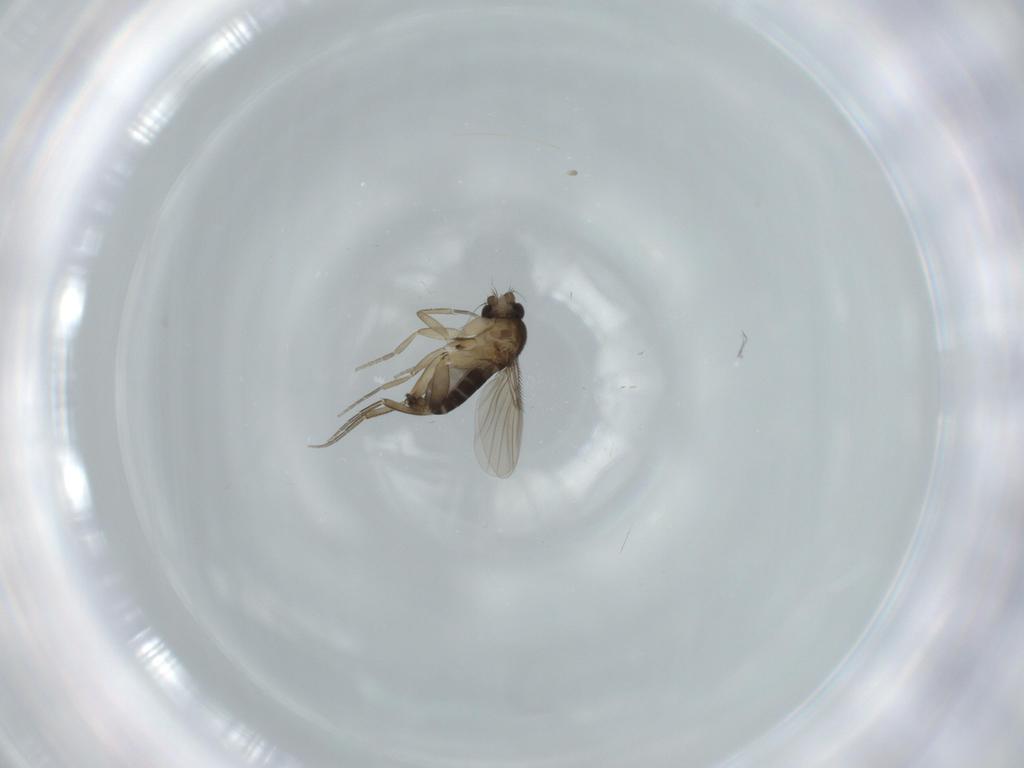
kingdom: Animalia
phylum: Arthropoda
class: Insecta
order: Diptera
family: Phoridae
